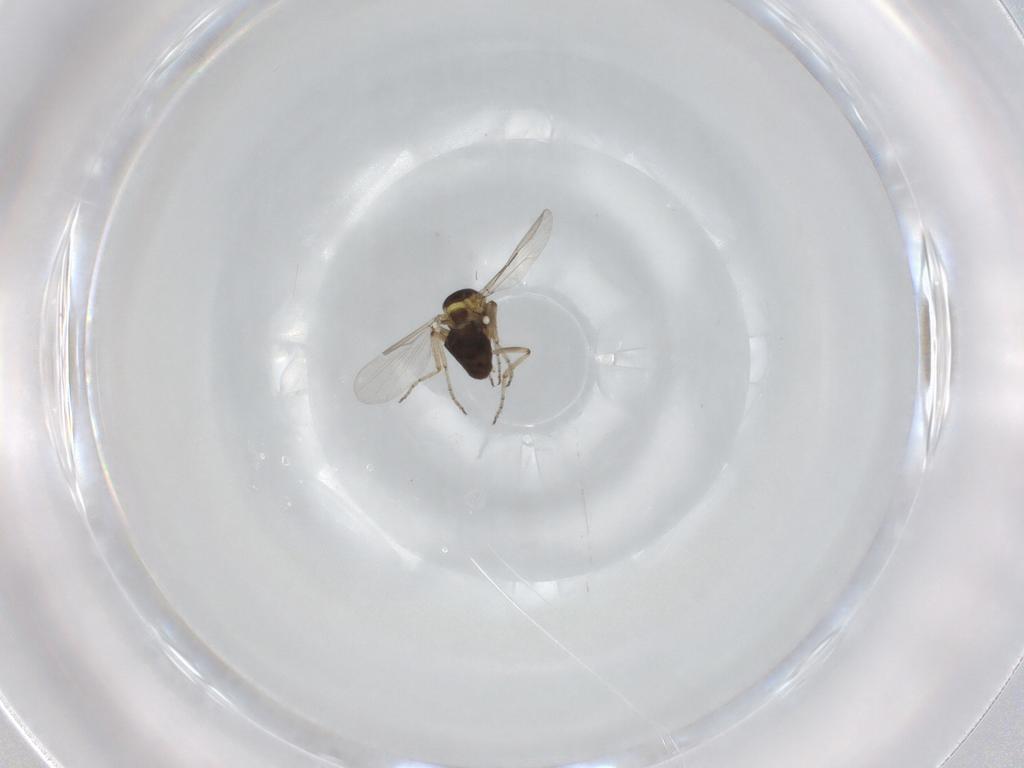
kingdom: Animalia
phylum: Arthropoda
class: Insecta
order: Diptera
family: Ceratopogonidae
